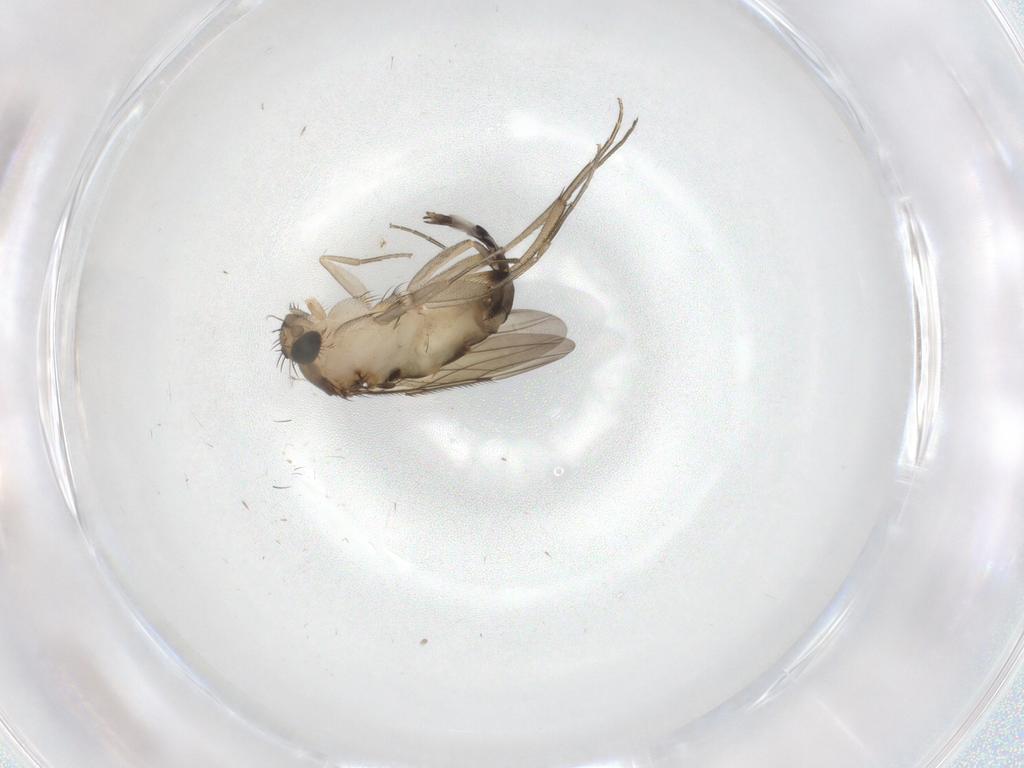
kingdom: Animalia
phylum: Arthropoda
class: Insecta
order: Diptera
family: Phoridae
